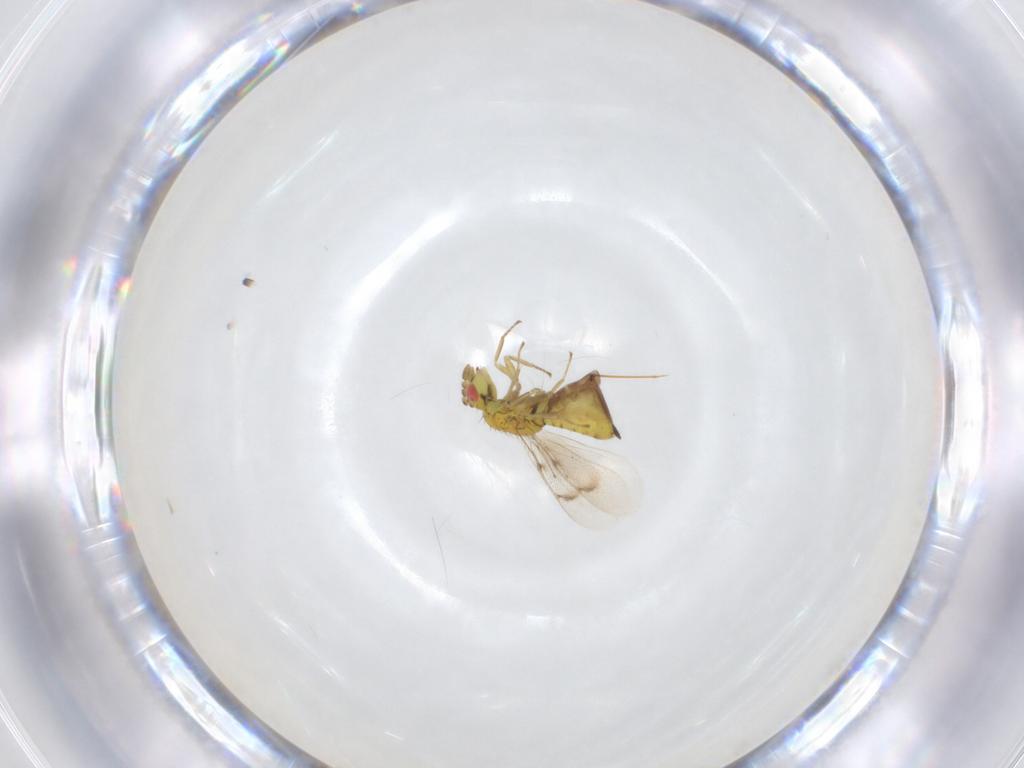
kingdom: Animalia
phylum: Arthropoda
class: Insecta
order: Hymenoptera
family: Eulophidae
